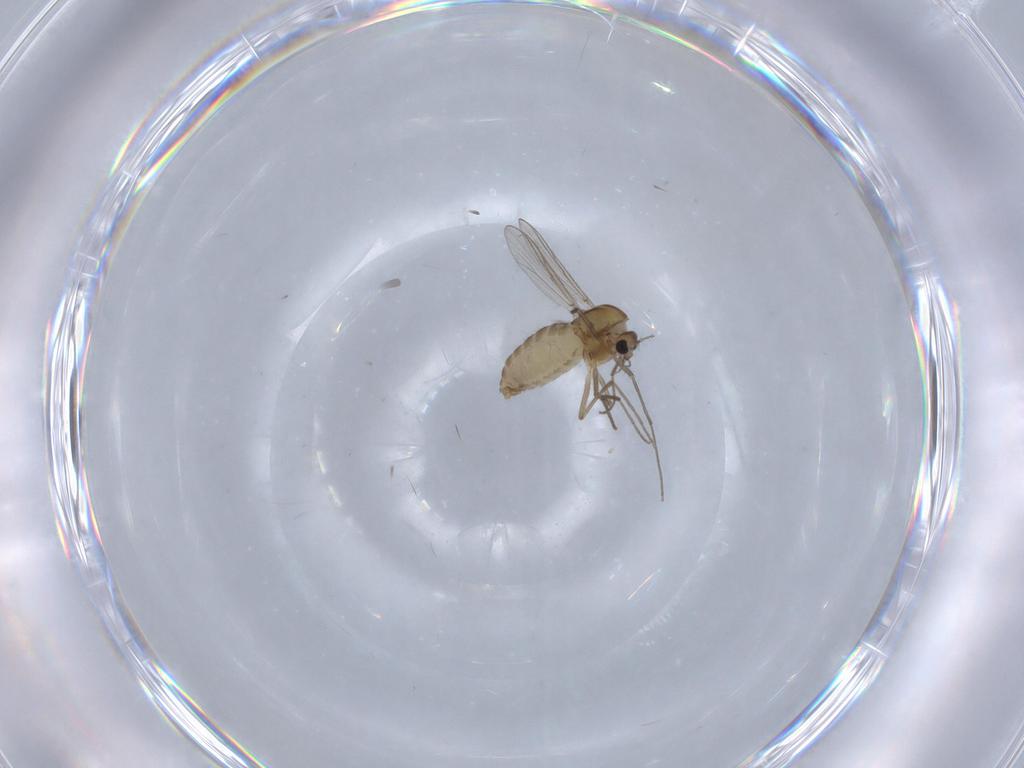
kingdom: Animalia
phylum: Arthropoda
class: Insecta
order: Diptera
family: Chironomidae
